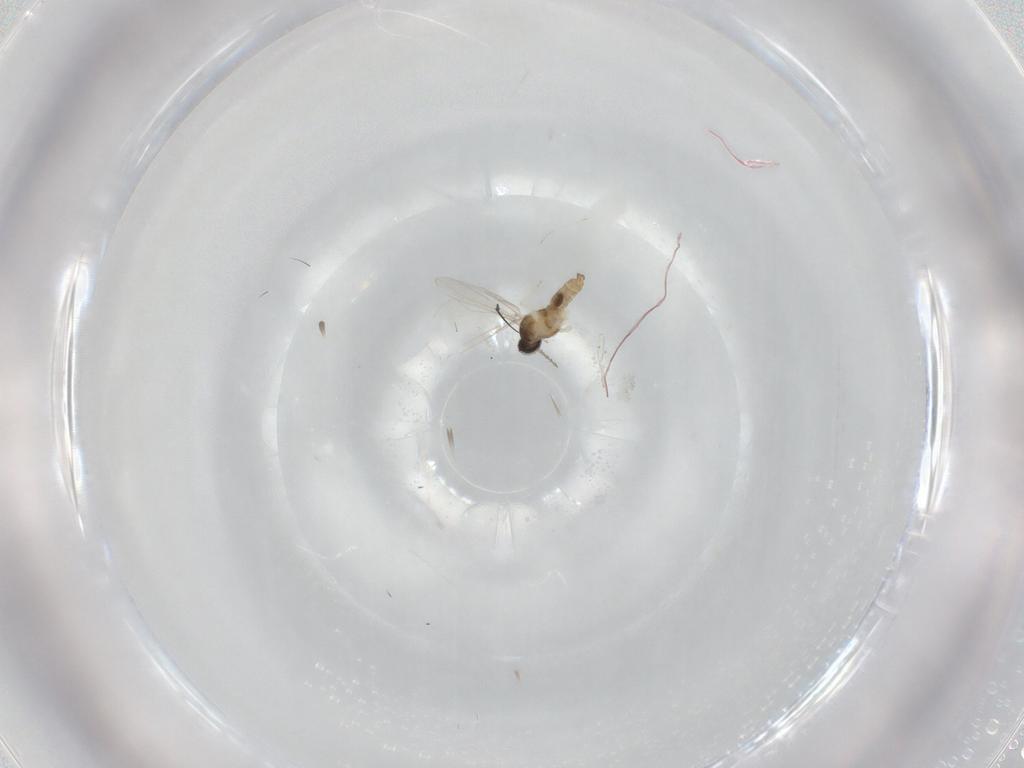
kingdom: Animalia
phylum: Arthropoda
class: Insecta
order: Diptera
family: Cecidomyiidae
